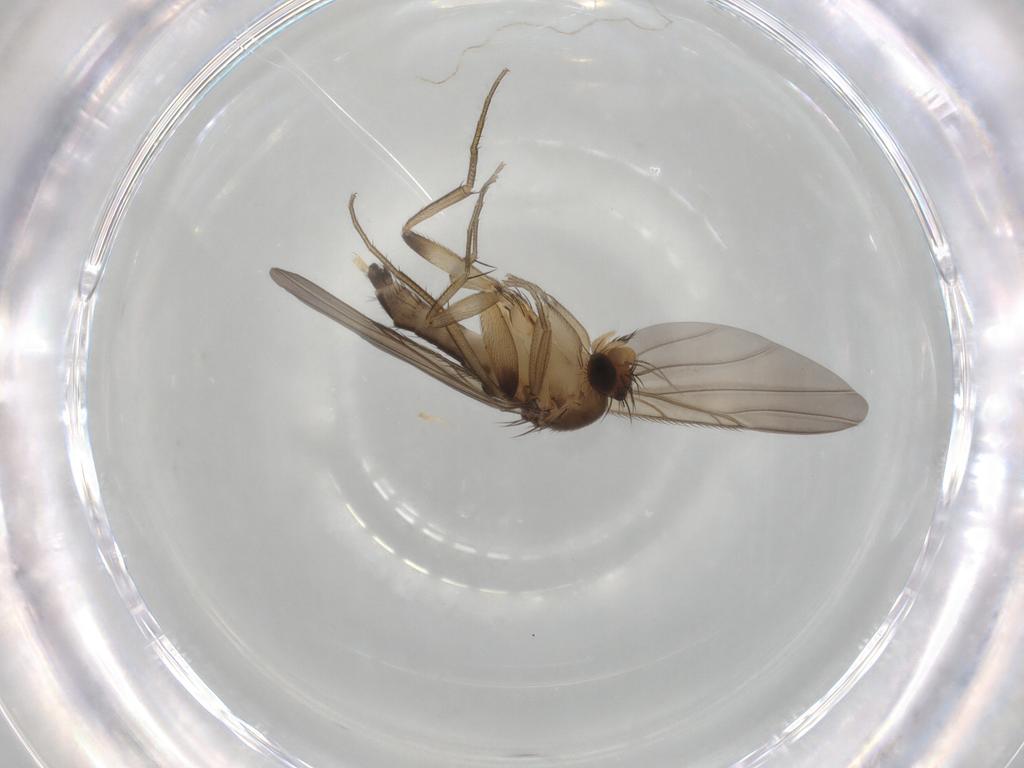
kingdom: Animalia
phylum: Arthropoda
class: Insecta
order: Diptera
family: Phoridae
